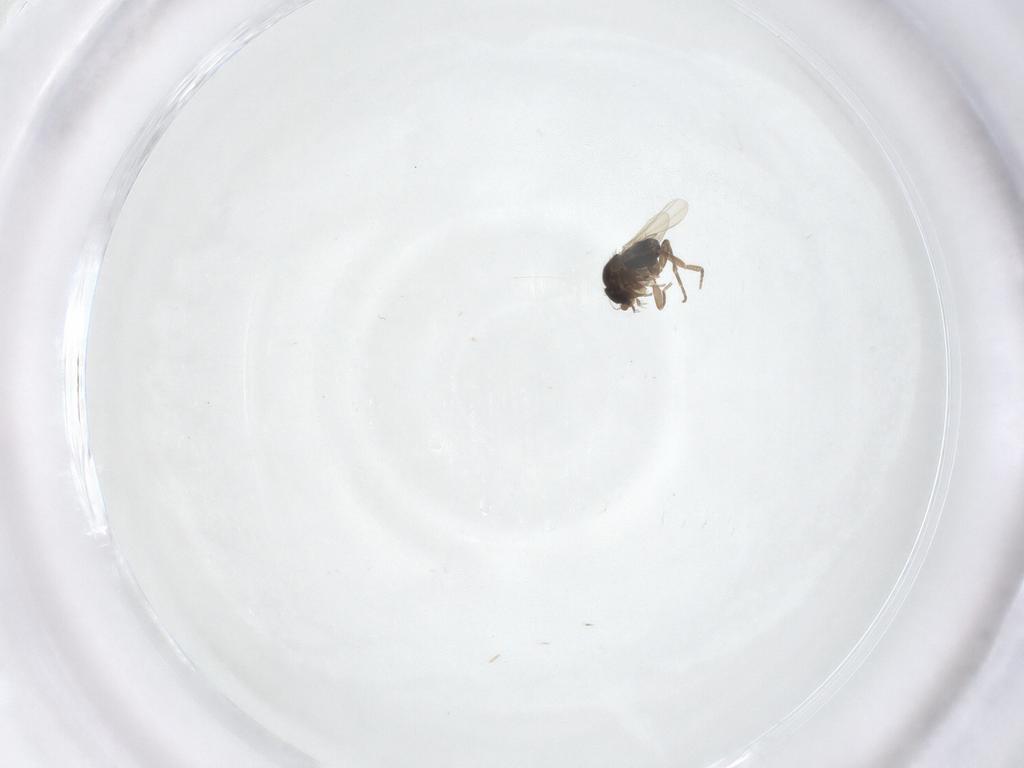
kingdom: Animalia
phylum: Arthropoda
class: Insecta
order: Diptera
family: Phoridae
